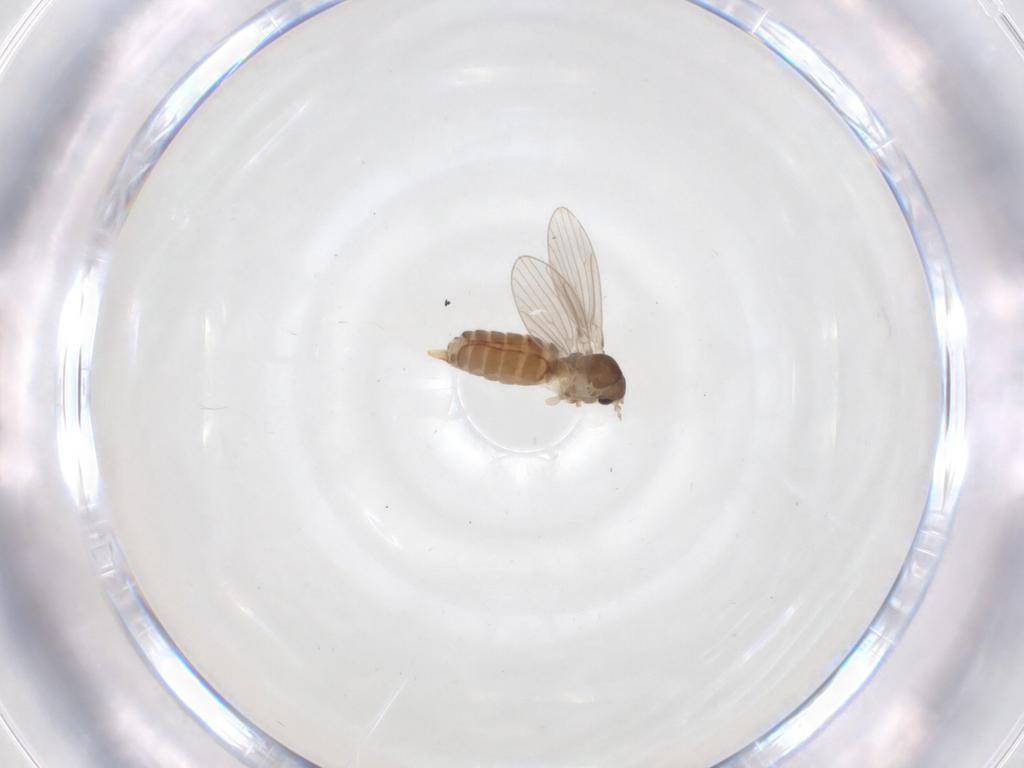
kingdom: Animalia
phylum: Arthropoda
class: Insecta
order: Diptera
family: Psychodidae
